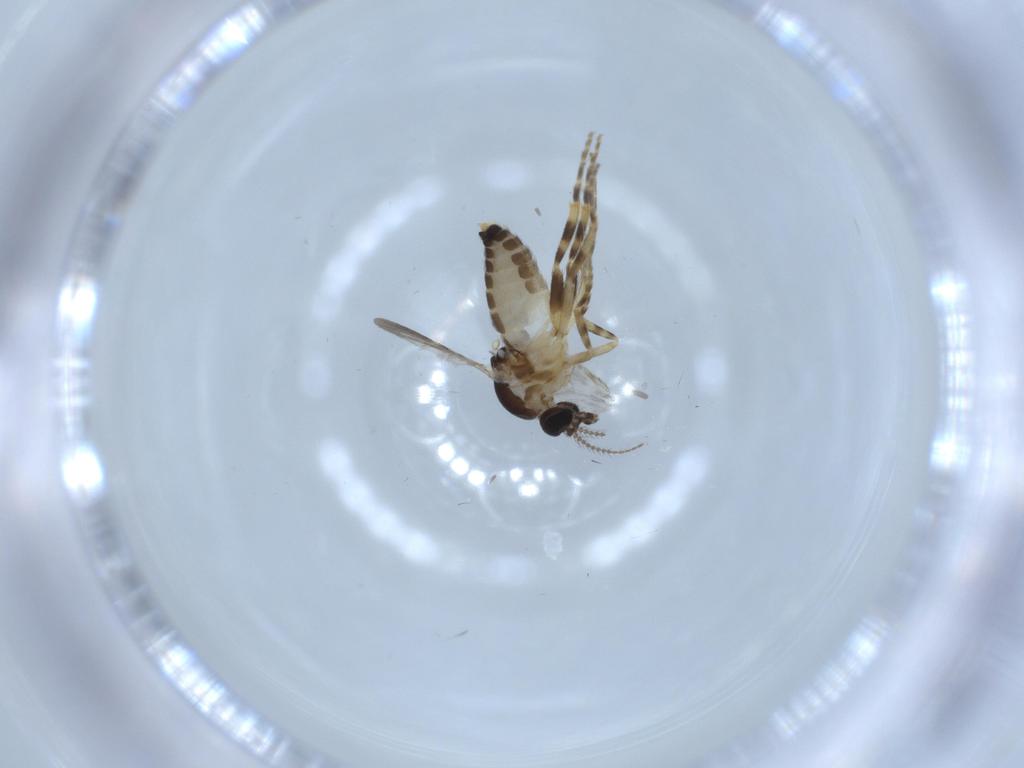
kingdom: Animalia
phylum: Arthropoda
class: Insecta
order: Diptera
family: Ceratopogonidae
